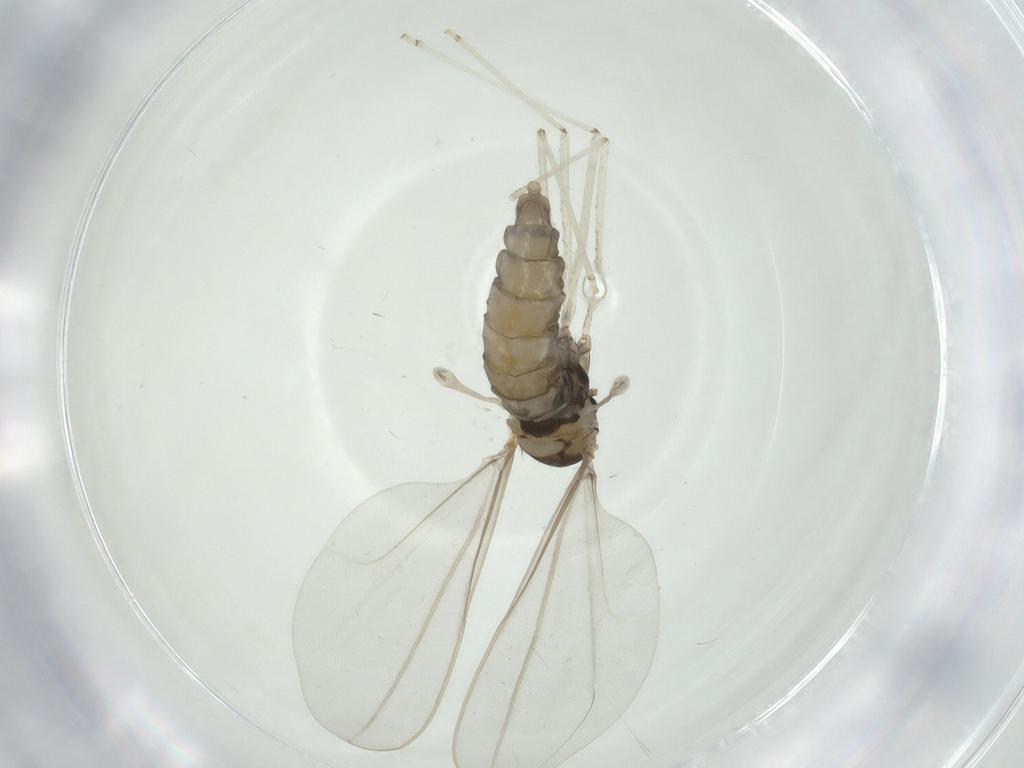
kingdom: Animalia
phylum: Arthropoda
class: Insecta
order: Diptera
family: Cecidomyiidae
